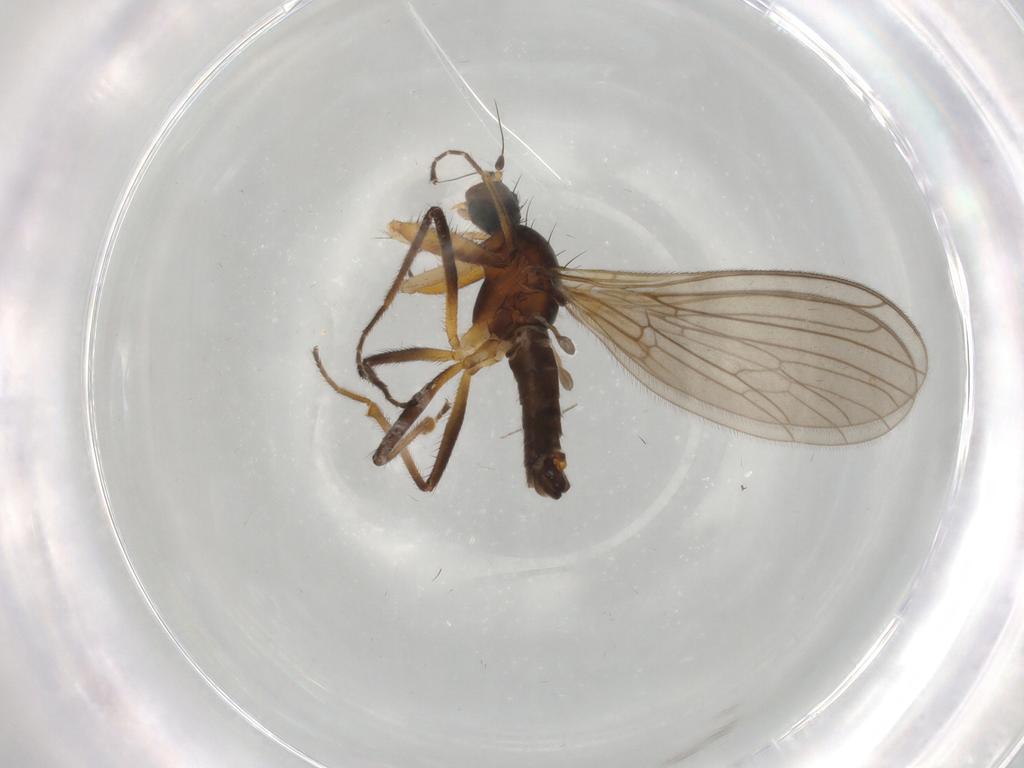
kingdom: Animalia
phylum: Arthropoda
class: Insecta
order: Diptera
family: Empididae
